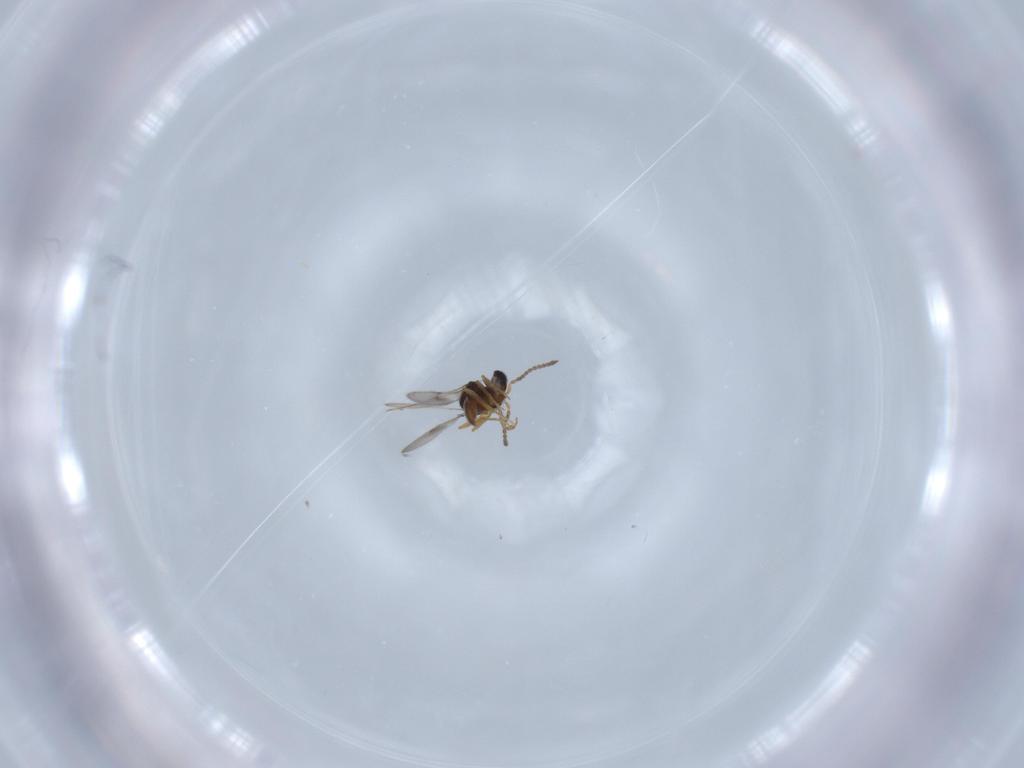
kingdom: Animalia
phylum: Arthropoda
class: Insecta
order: Hymenoptera
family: Scelionidae
